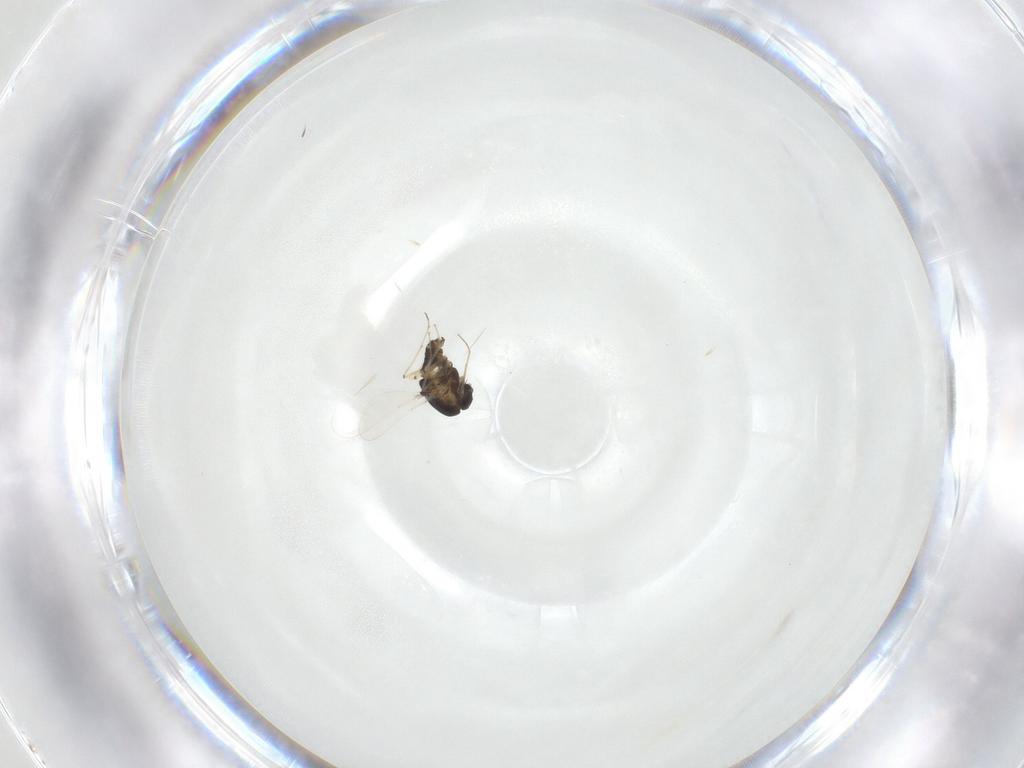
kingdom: Animalia
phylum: Arthropoda
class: Insecta
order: Diptera
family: Chironomidae
